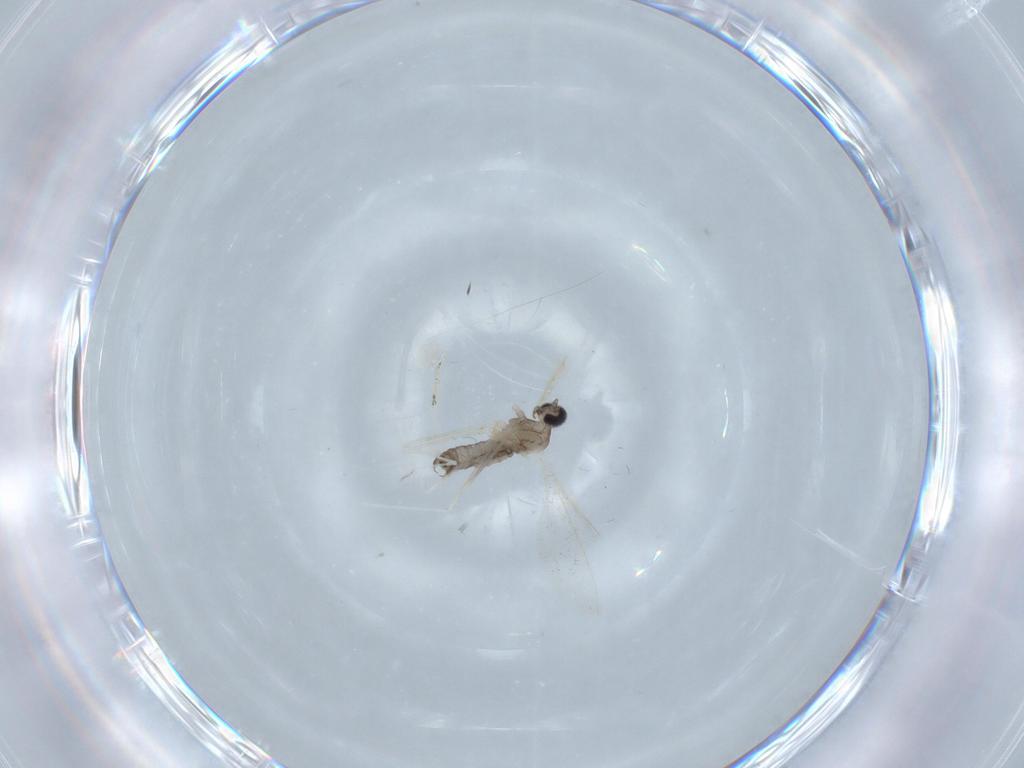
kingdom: Animalia
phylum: Arthropoda
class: Insecta
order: Diptera
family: Cecidomyiidae
